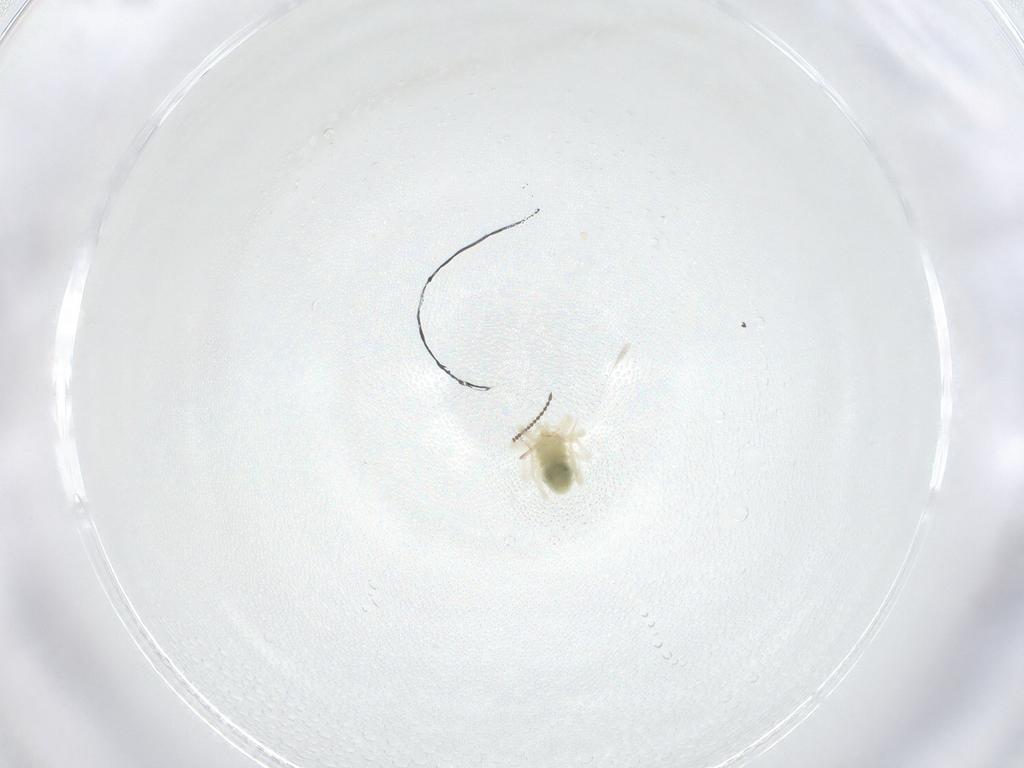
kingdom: Animalia
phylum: Arthropoda
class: Insecta
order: Diptera
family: Ceratopogonidae
